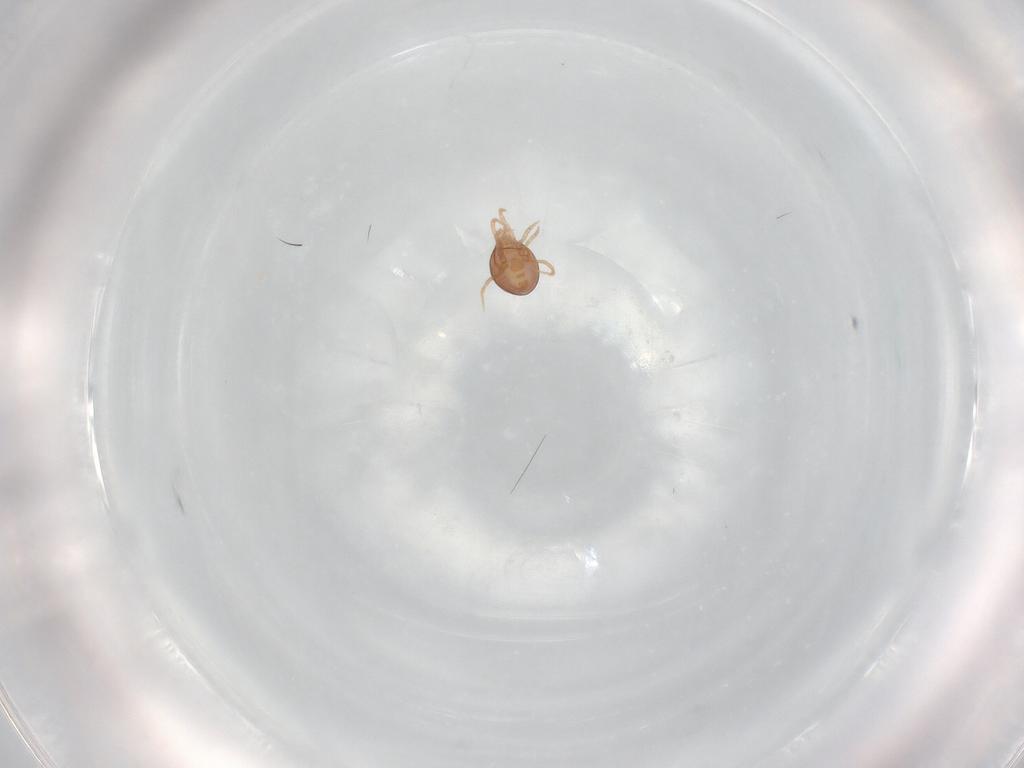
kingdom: Animalia
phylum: Arthropoda
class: Arachnida
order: Mesostigmata
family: Phytoseiidae
